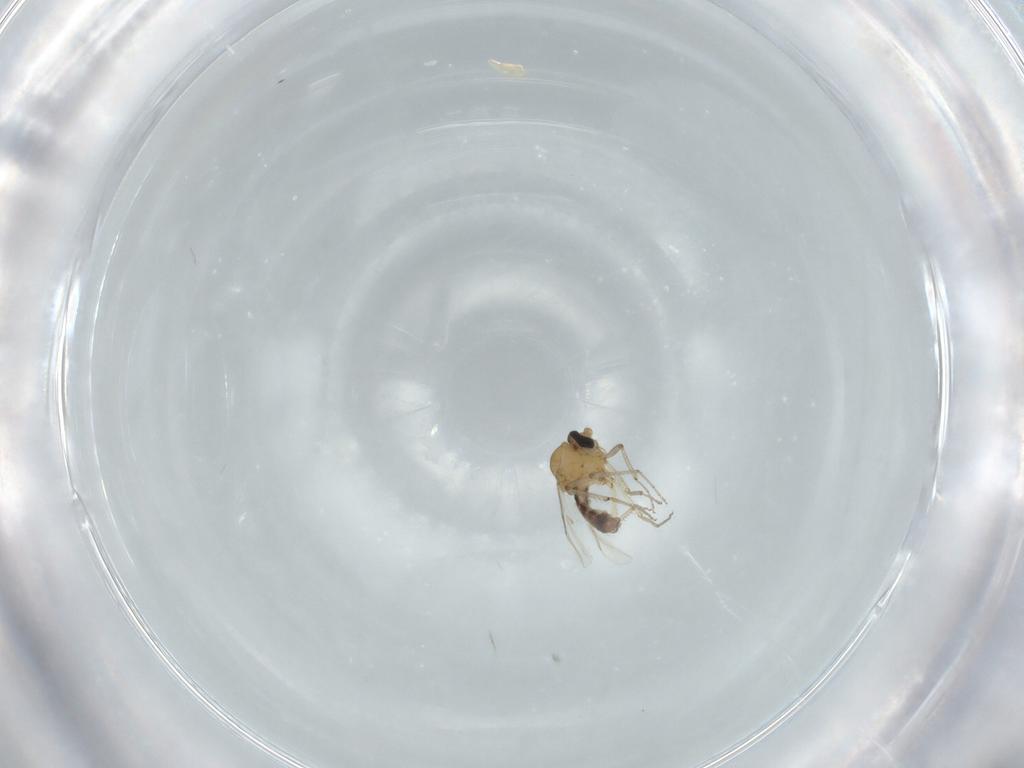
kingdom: Animalia
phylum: Arthropoda
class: Insecta
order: Diptera
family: Ceratopogonidae
